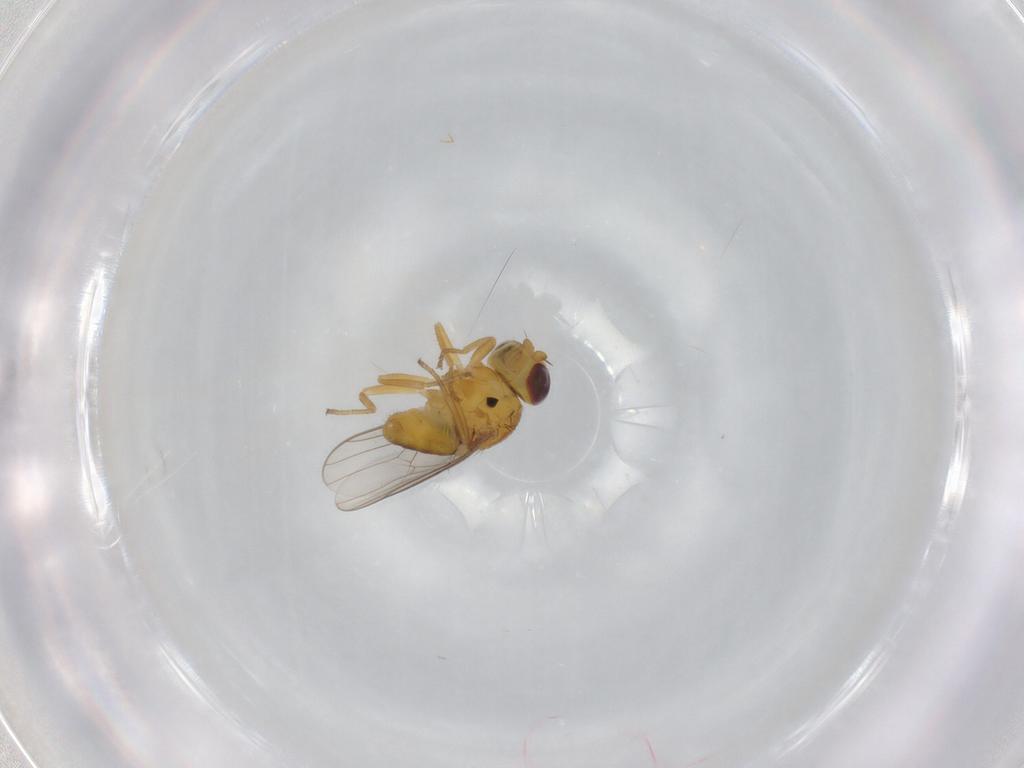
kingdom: Animalia
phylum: Arthropoda
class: Insecta
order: Diptera
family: Chloropidae
